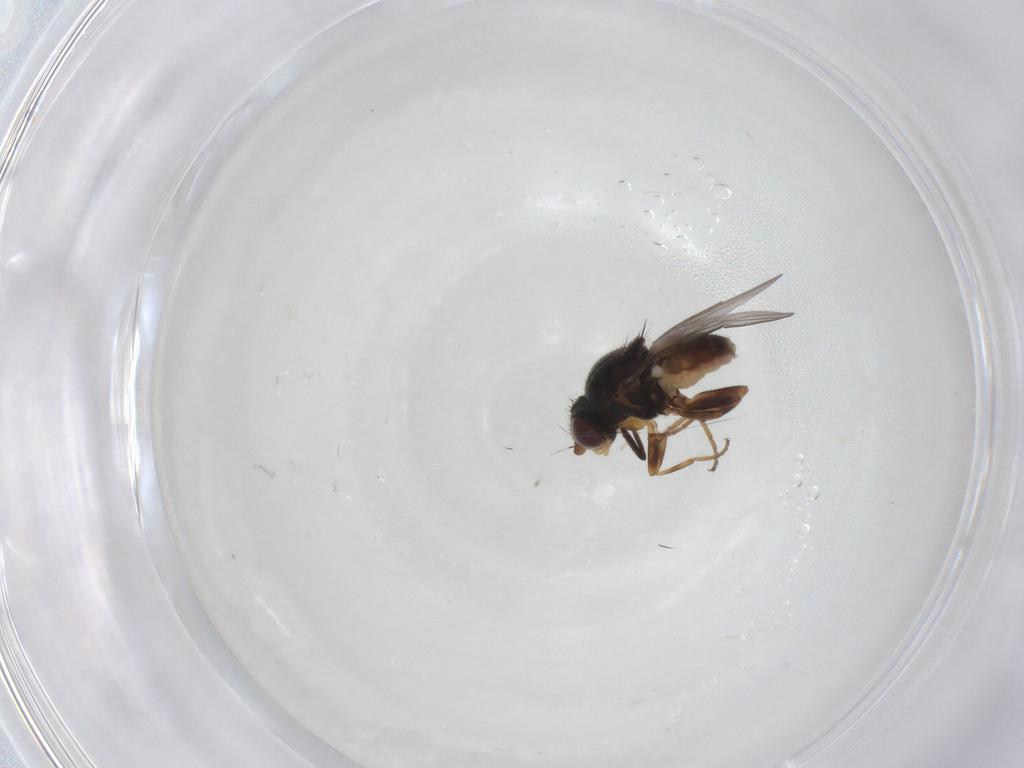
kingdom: Animalia
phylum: Arthropoda
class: Insecta
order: Diptera
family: Chloropidae
